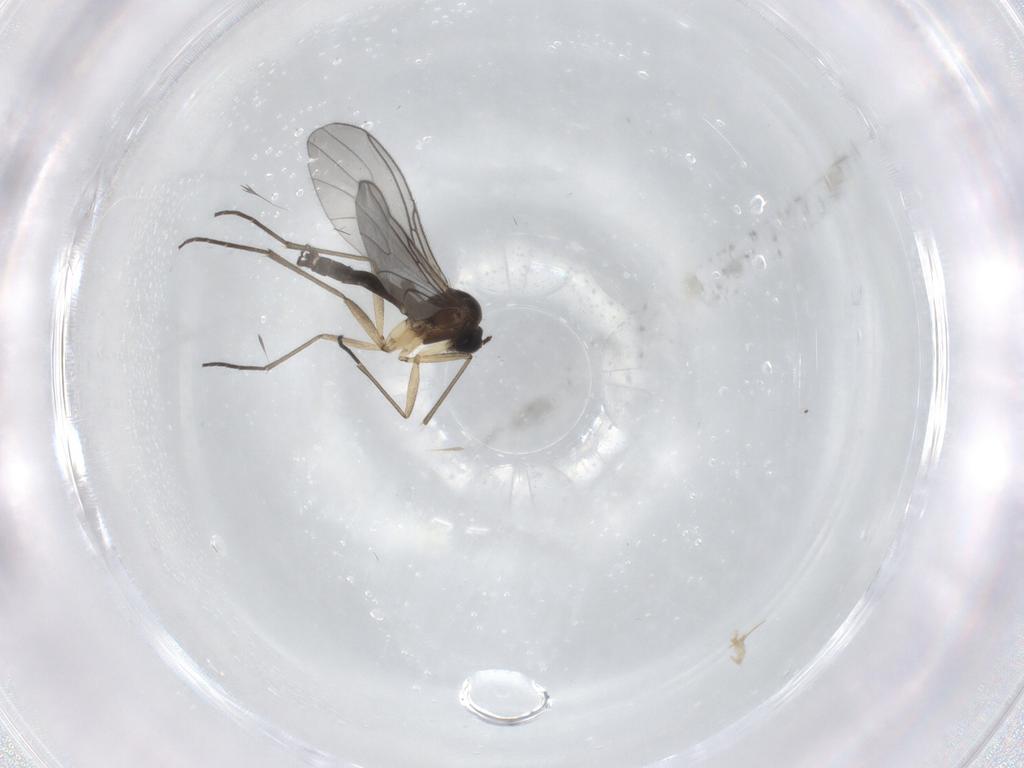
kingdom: Animalia
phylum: Arthropoda
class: Insecta
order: Diptera
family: Sciaridae
